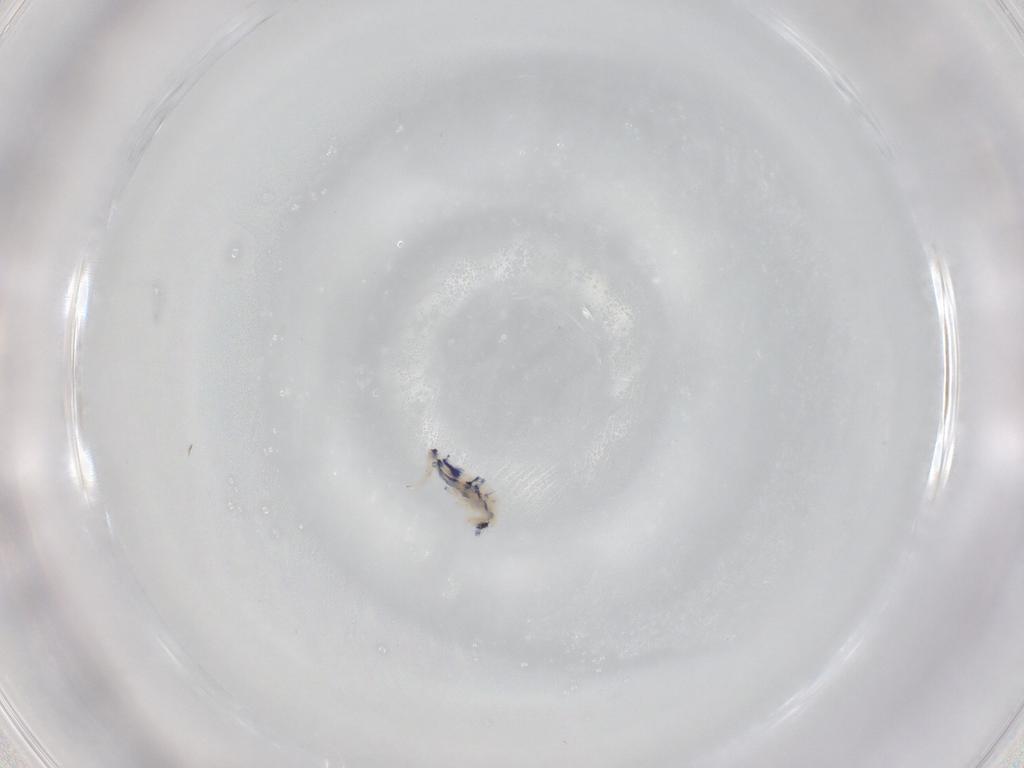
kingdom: Animalia
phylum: Arthropoda
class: Collembola
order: Entomobryomorpha
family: Entomobryidae
